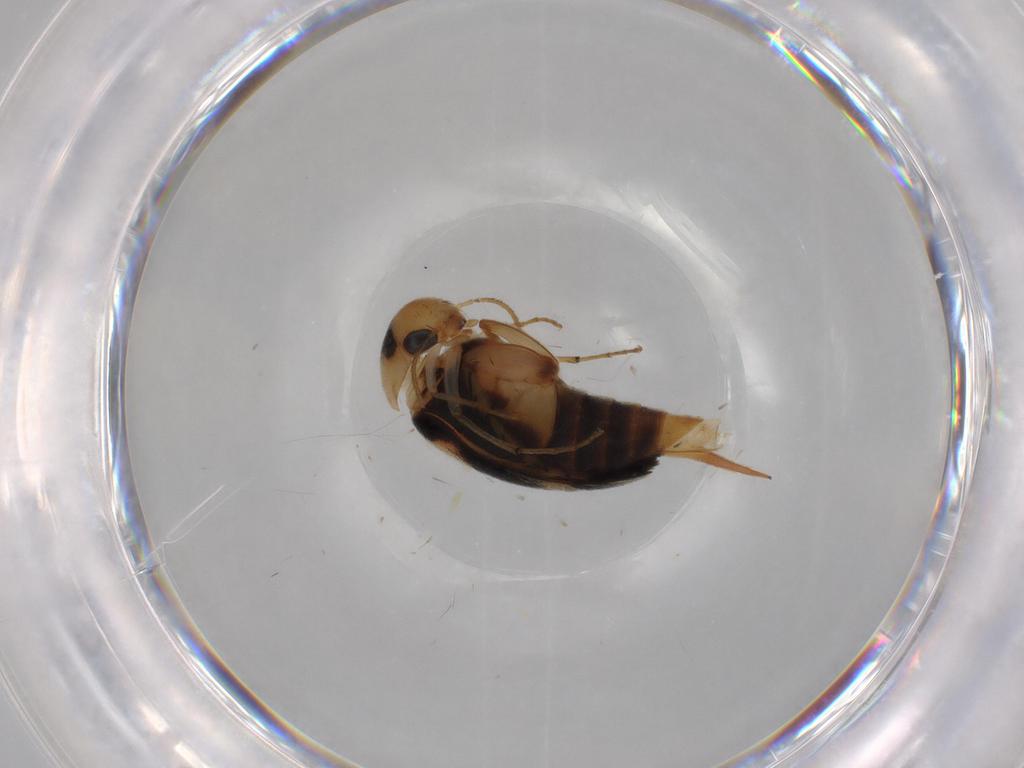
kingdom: Animalia
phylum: Arthropoda
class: Insecta
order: Coleoptera
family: Mordellidae
